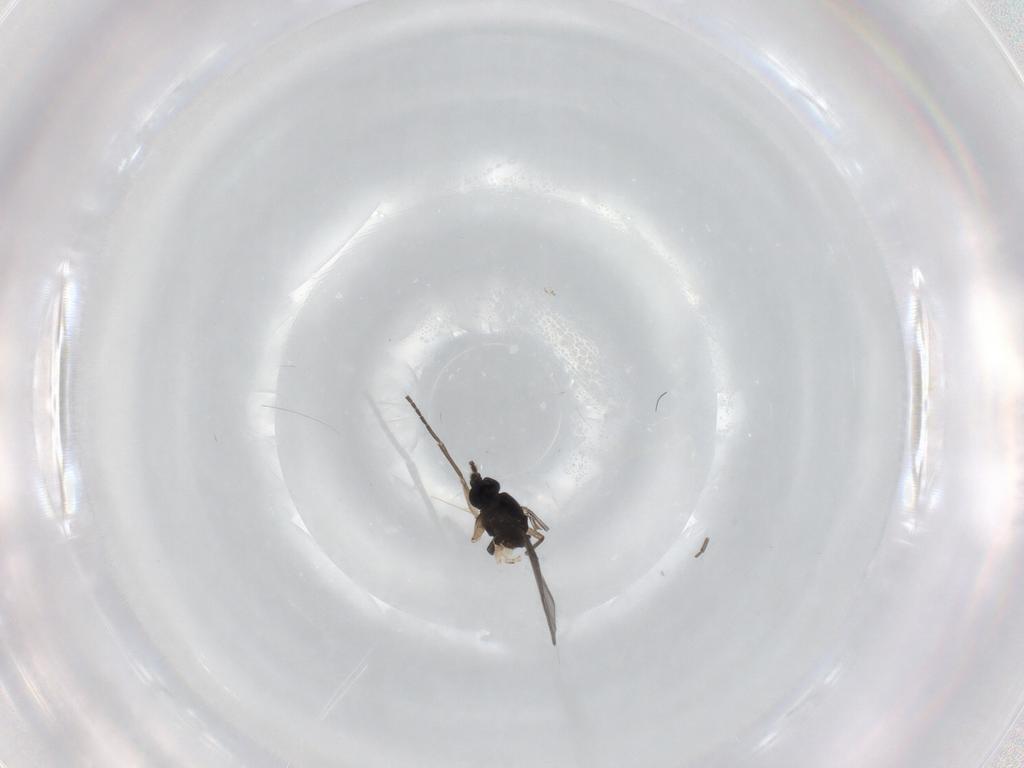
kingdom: Animalia
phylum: Arthropoda
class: Insecta
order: Diptera
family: Sciaridae
